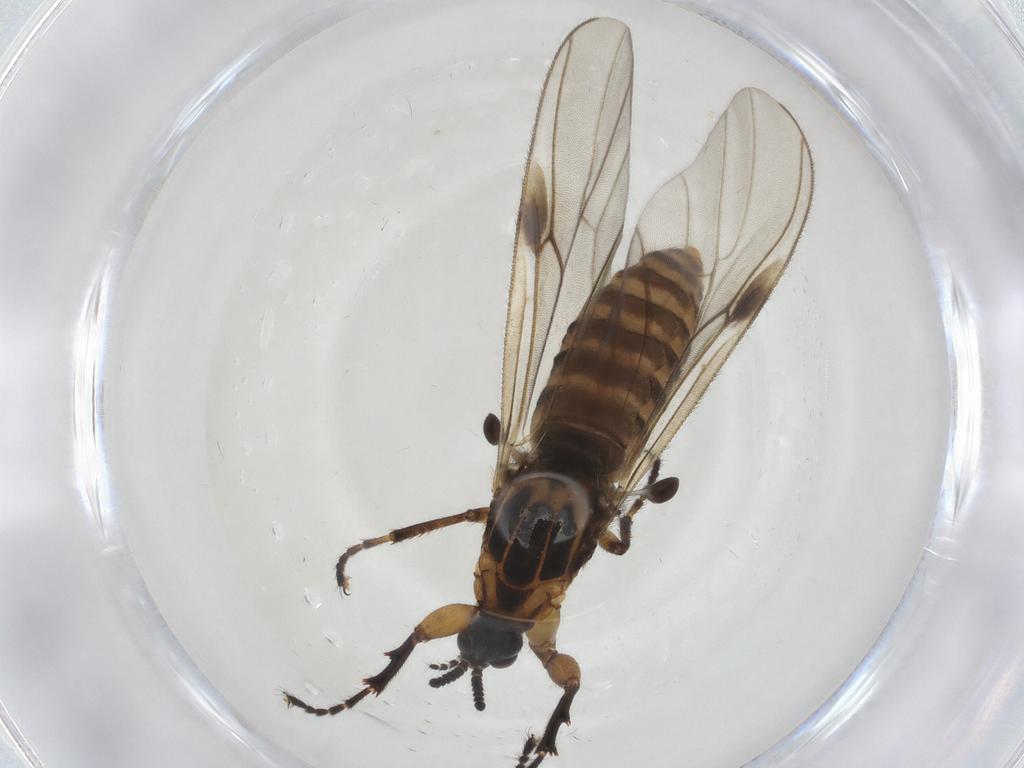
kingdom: Animalia
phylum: Arthropoda
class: Insecta
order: Diptera
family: Bibionidae
